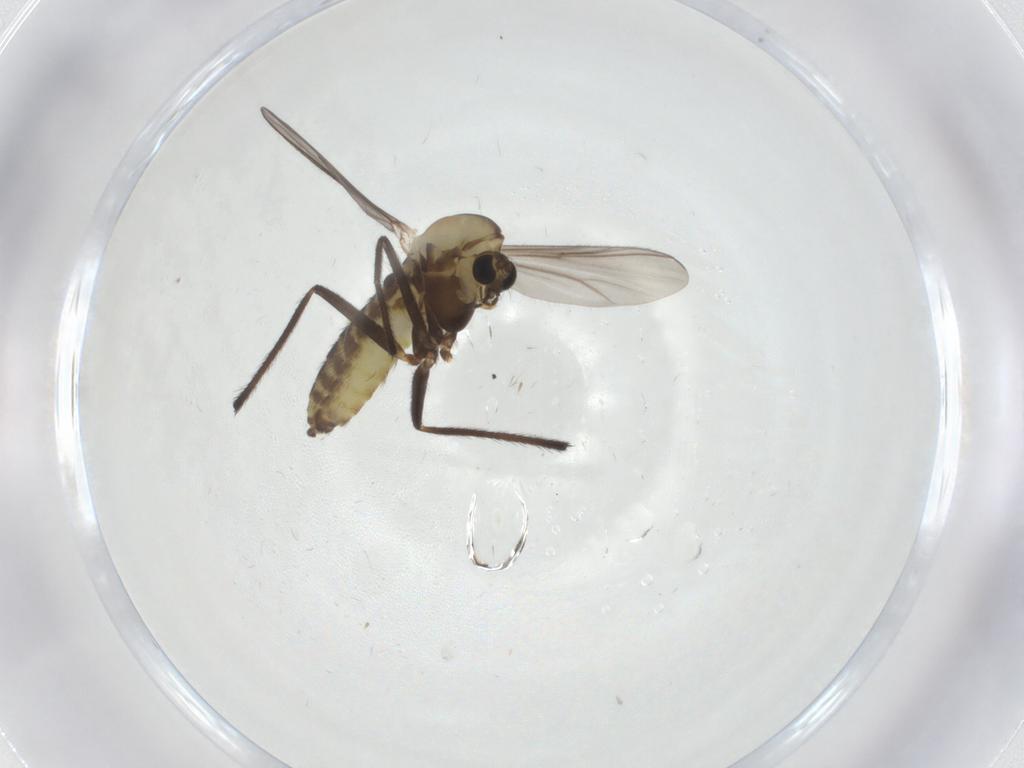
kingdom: Animalia
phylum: Arthropoda
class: Insecta
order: Diptera
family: Chironomidae
